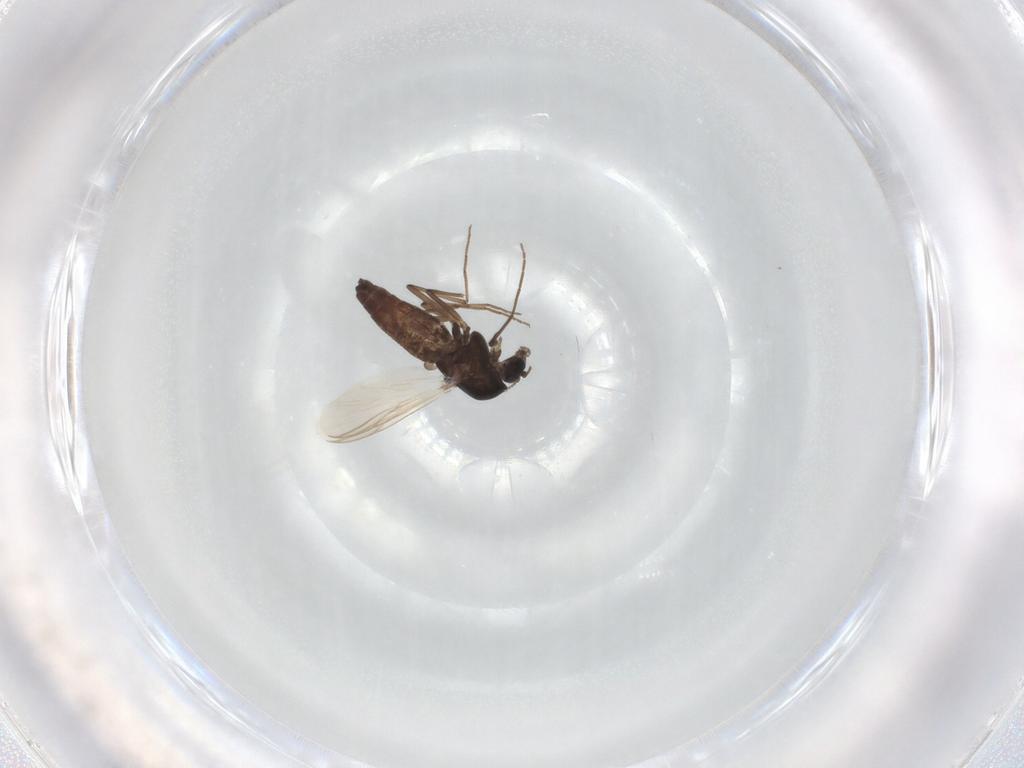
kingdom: Animalia
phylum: Arthropoda
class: Insecta
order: Diptera
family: Chironomidae
